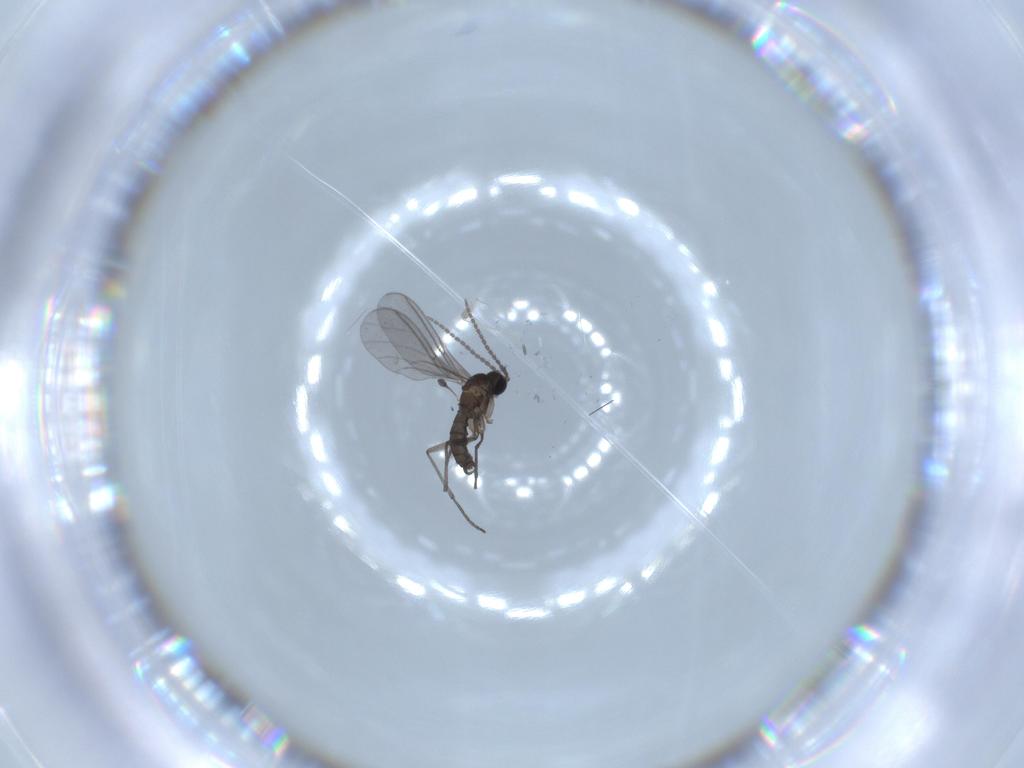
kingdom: Animalia
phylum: Arthropoda
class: Insecta
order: Diptera
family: Sciaridae
